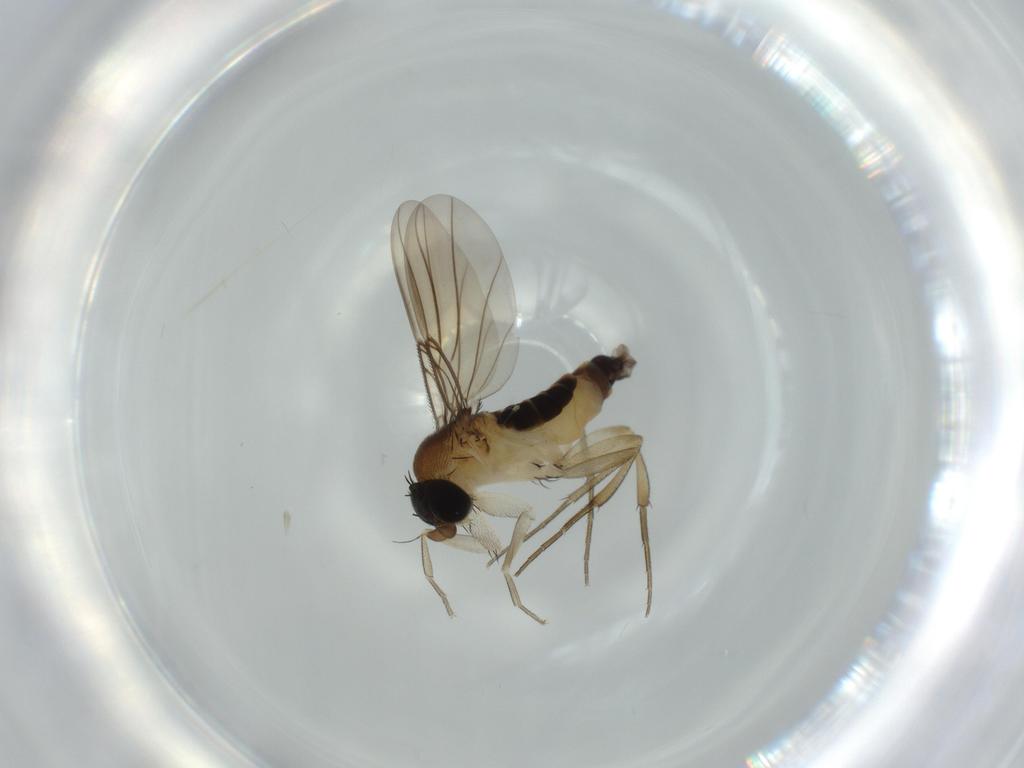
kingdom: Animalia
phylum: Arthropoda
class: Insecta
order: Diptera
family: Phoridae
